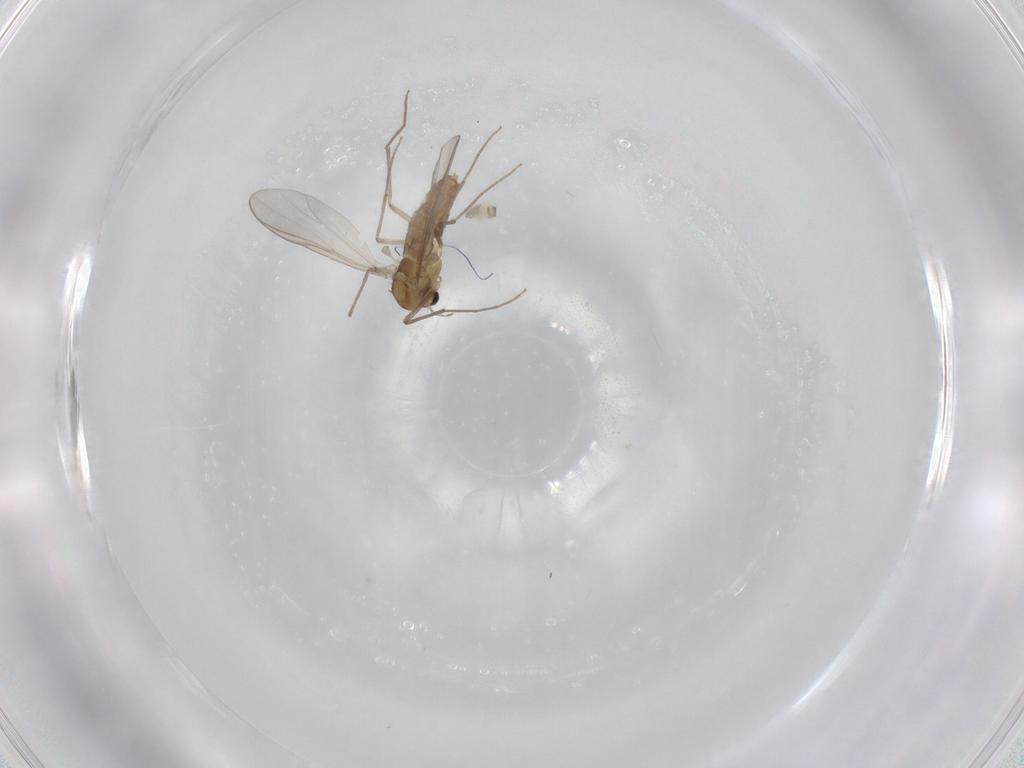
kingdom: Animalia
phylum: Arthropoda
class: Insecta
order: Diptera
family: Chironomidae
